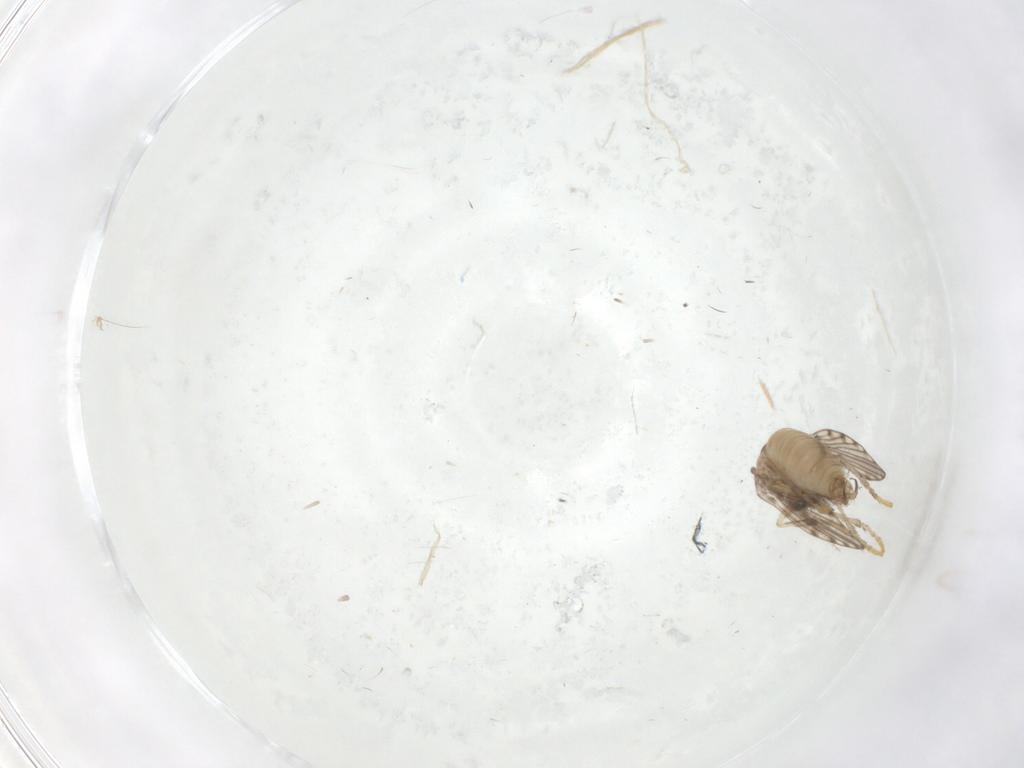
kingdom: Animalia
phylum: Arthropoda
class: Insecta
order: Diptera
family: Psychodidae
